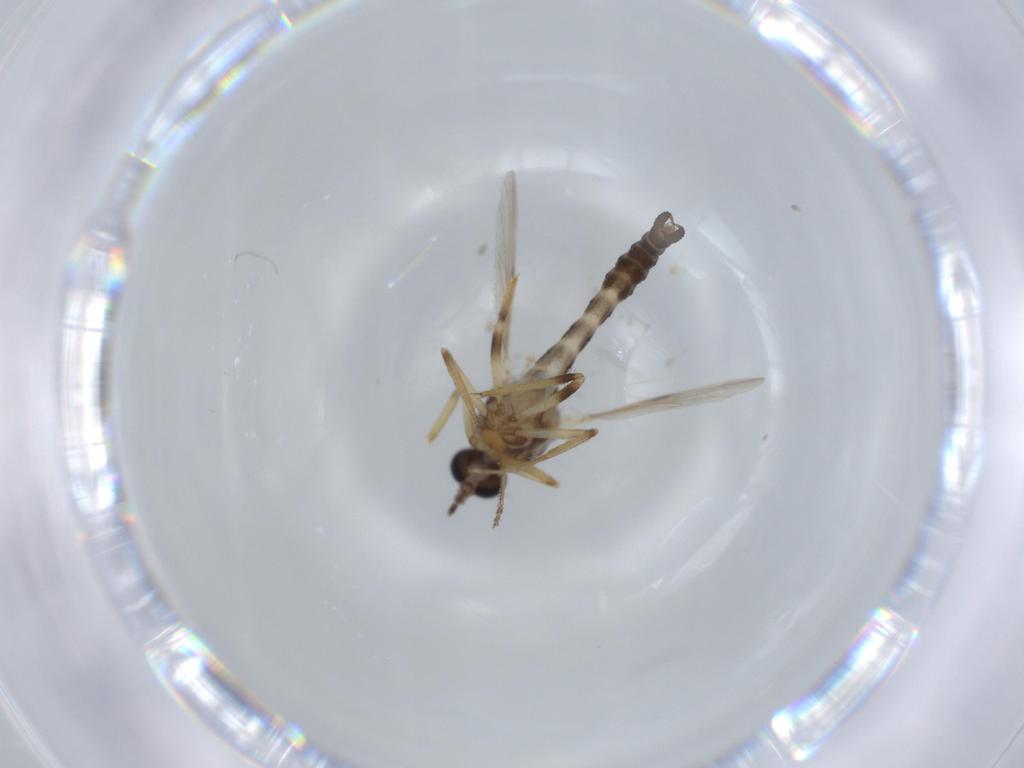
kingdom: Animalia
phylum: Arthropoda
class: Insecta
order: Diptera
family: Ceratopogonidae
